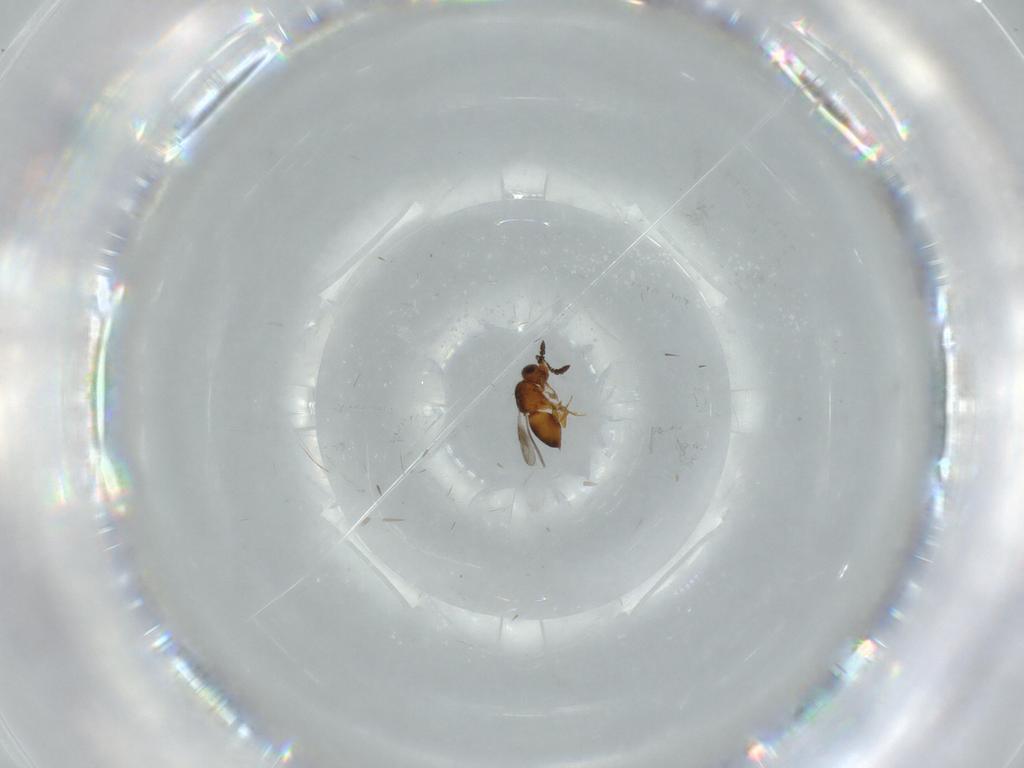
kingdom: Animalia
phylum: Arthropoda
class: Insecta
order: Hymenoptera
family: Ceraphronidae
